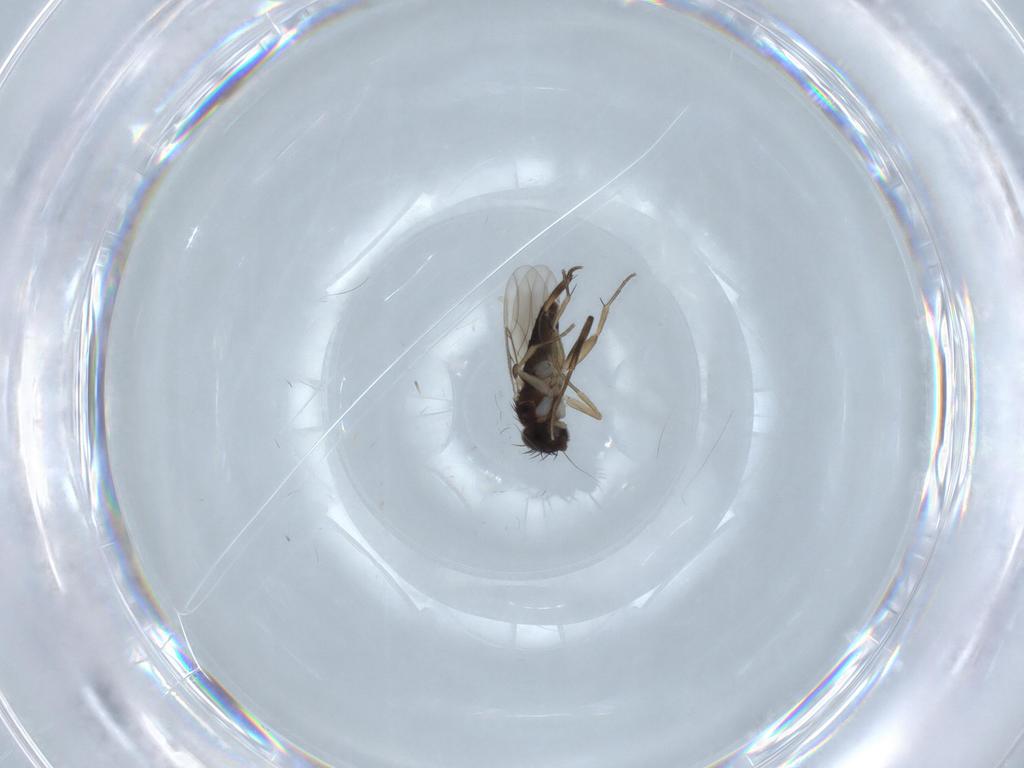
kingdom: Animalia
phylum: Arthropoda
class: Insecta
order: Diptera
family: Phoridae
